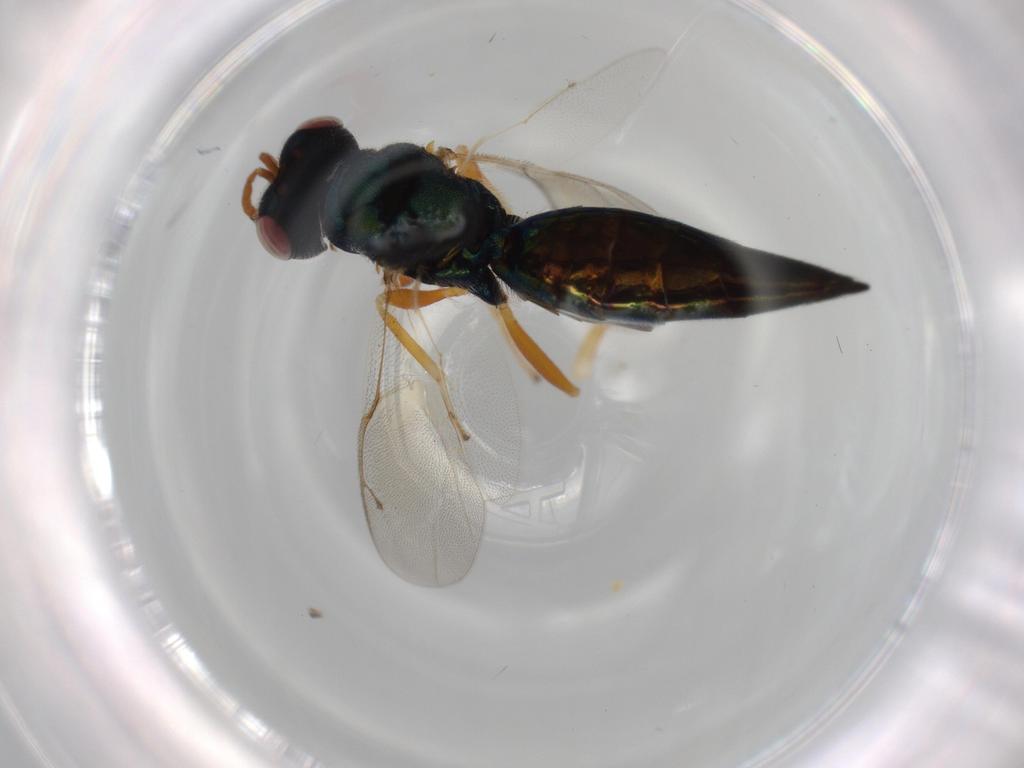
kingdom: Animalia
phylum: Arthropoda
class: Insecta
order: Hymenoptera
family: Pteromalidae
